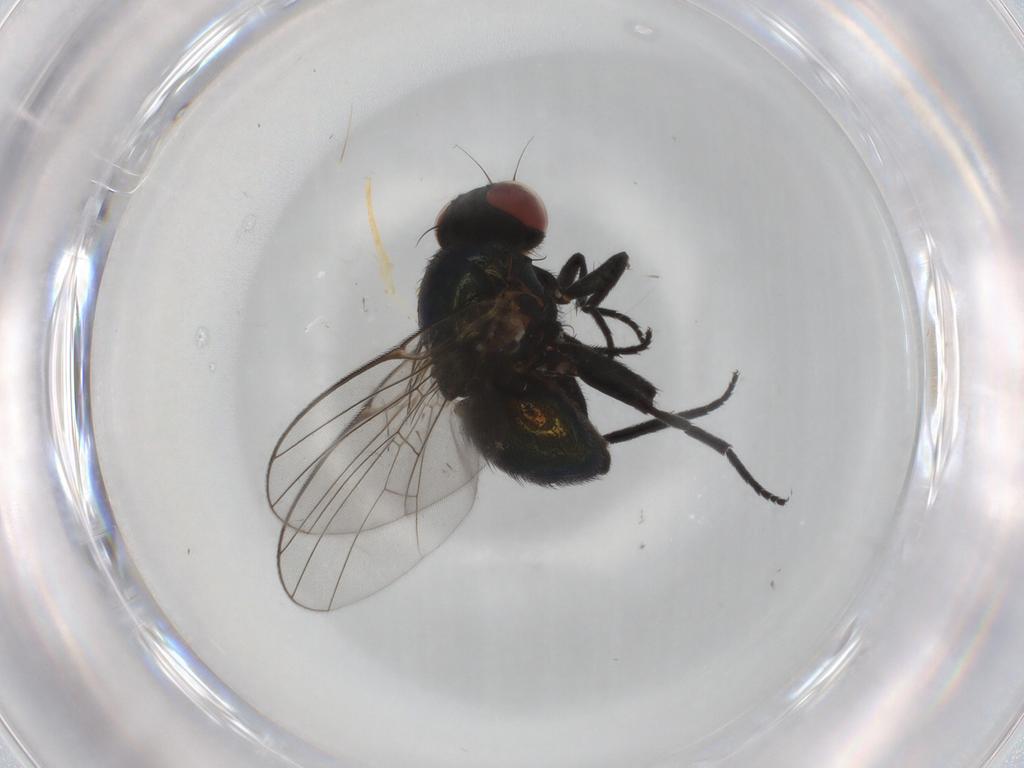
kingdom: Animalia
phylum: Arthropoda
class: Insecta
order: Diptera
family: Agromyzidae
